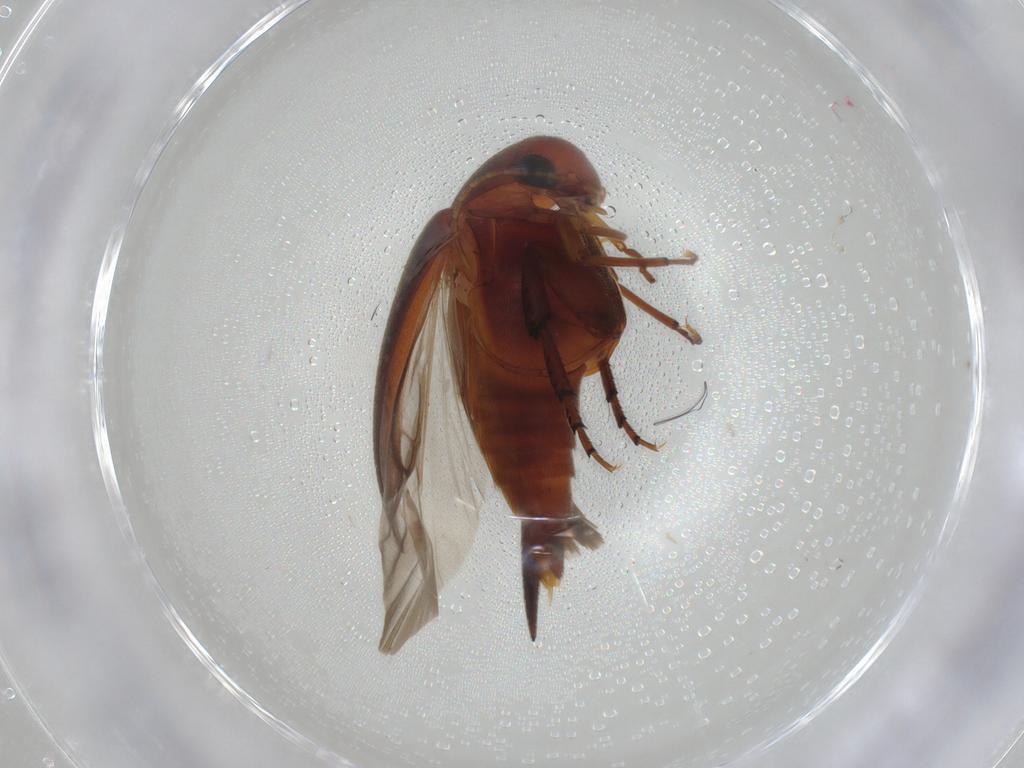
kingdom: Animalia
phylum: Arthropoda
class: Insecta
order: Coleoptera
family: Mordellidae
